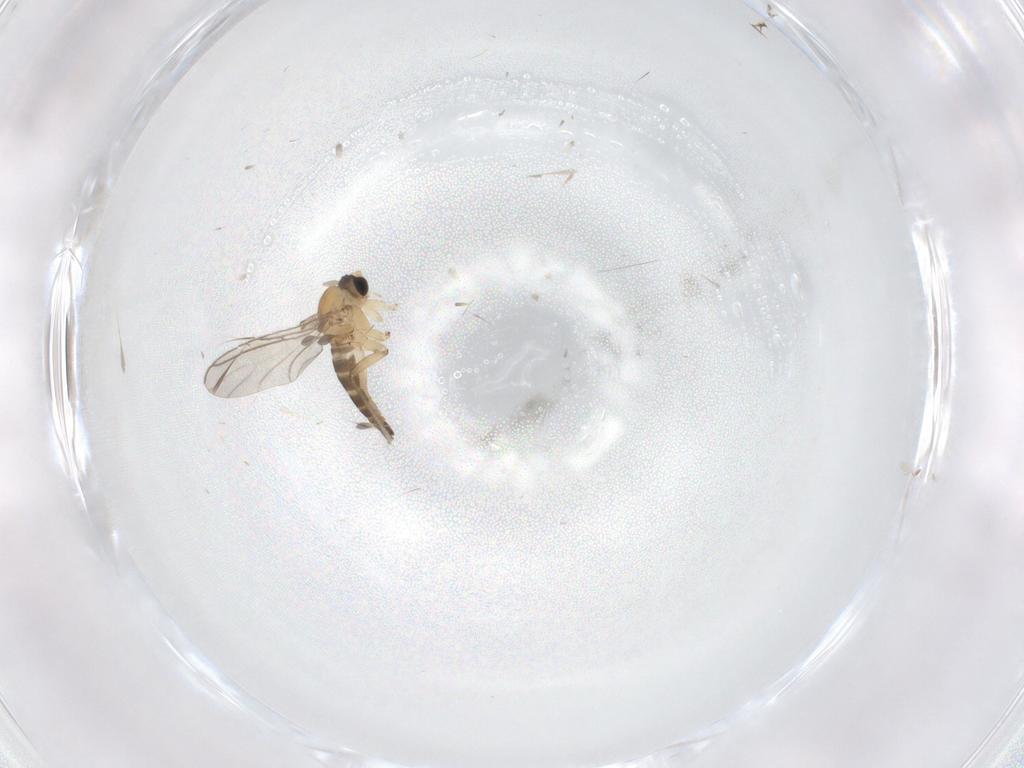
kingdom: Animalia
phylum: Arthropoda
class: Insecta
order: Diptera
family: Cecidomyiidae
